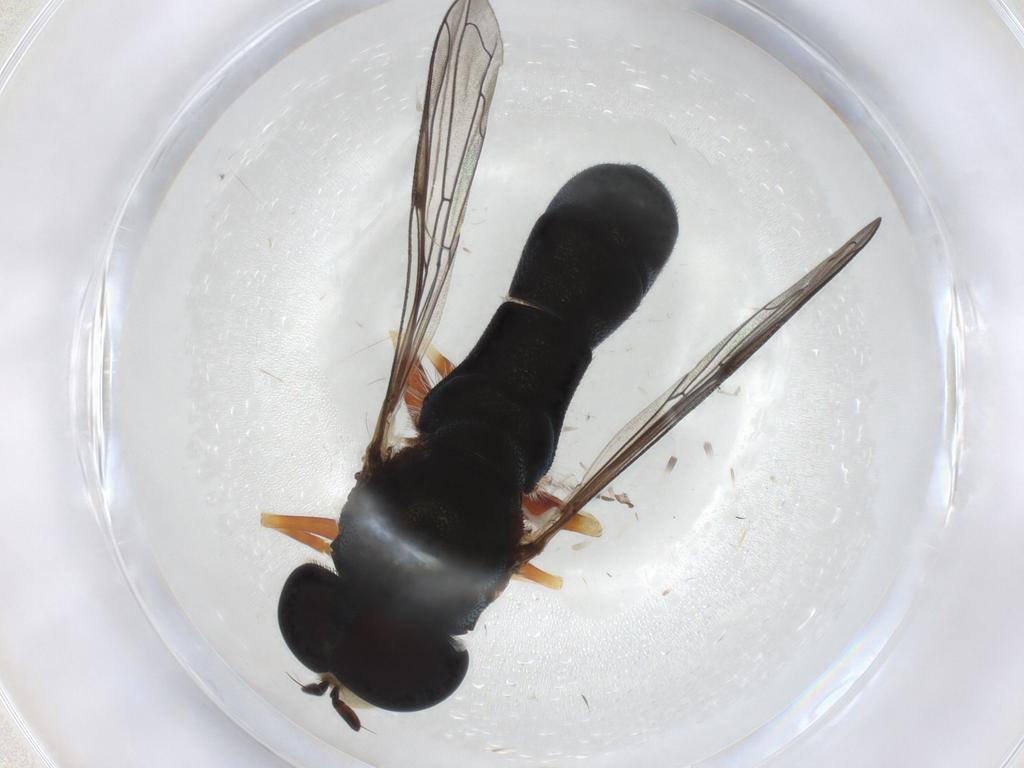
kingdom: Animalia
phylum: Arthropoda
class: Insecta
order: Diptera
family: Syrphidae
